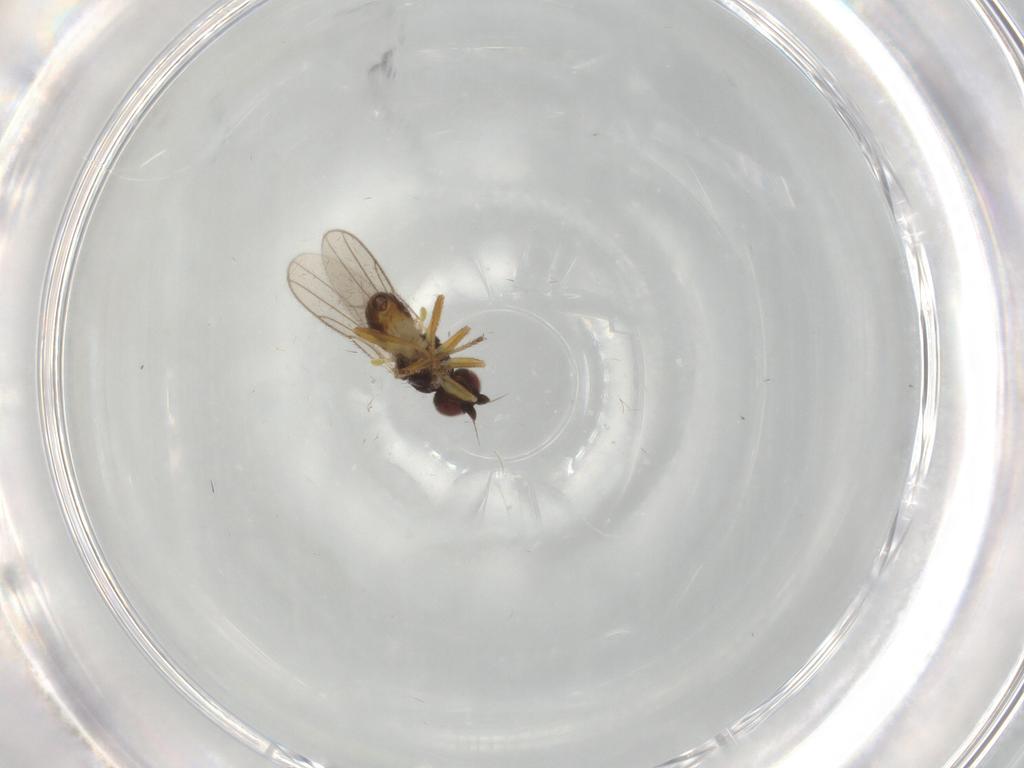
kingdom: Animalia
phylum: Arthropoda
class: Insecta
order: Diptera
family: Chloropidae
